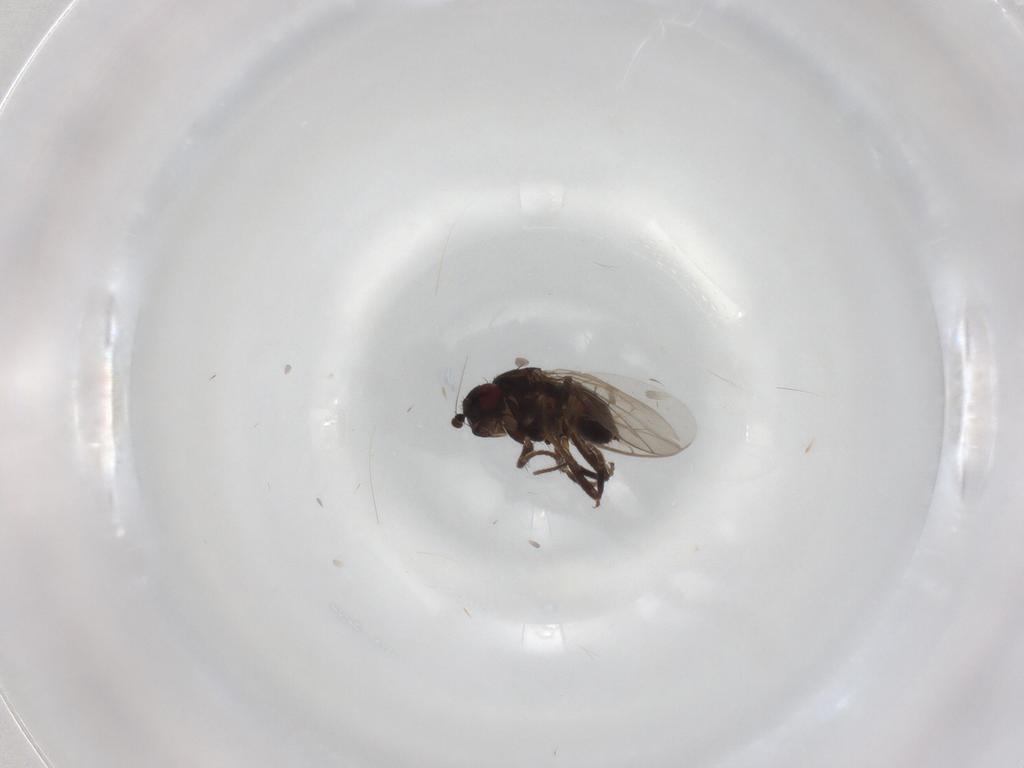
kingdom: Animalia
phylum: Arthropoda
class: Insecta
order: Diptera
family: Sphaeroceridae
